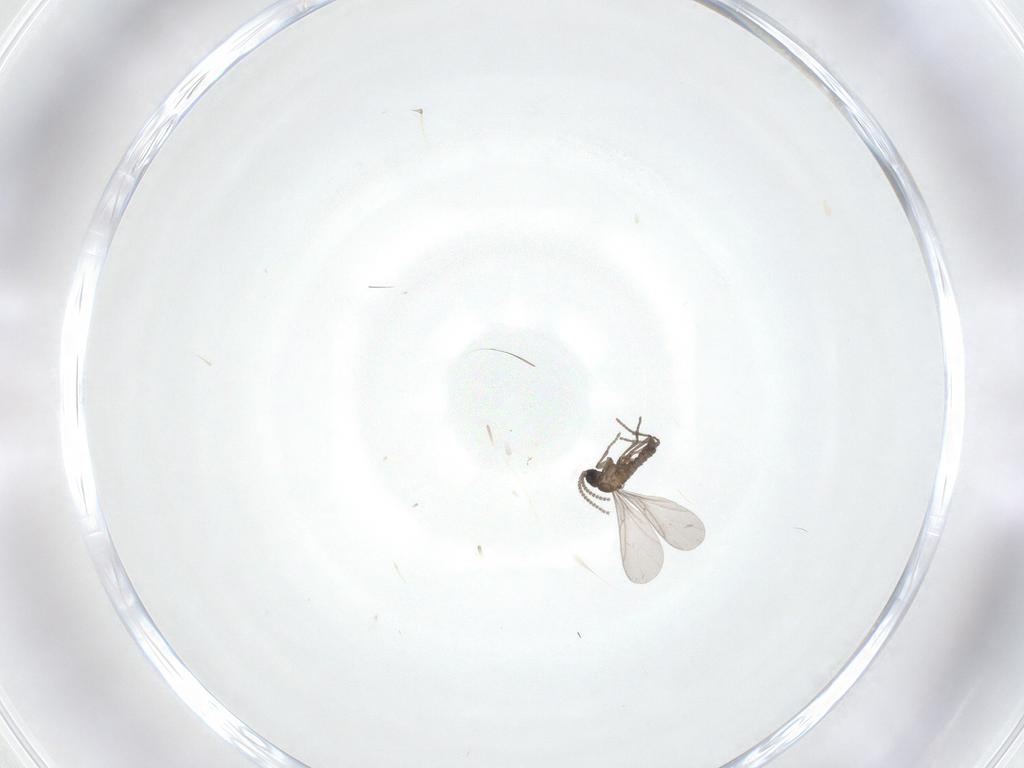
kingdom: Animalia
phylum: Arthropoda
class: Insecta
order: Diptera
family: Sciaridae
